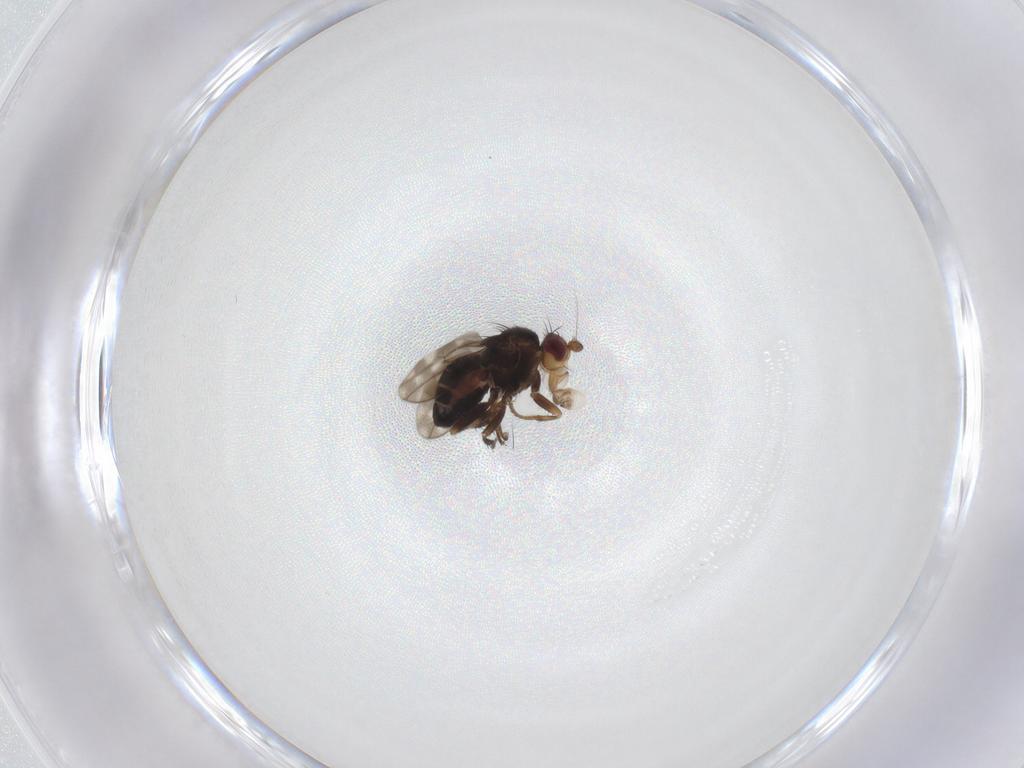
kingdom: Animalia
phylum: Arthropoda
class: Insecta
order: Diptera
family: Sphaeroceridae
